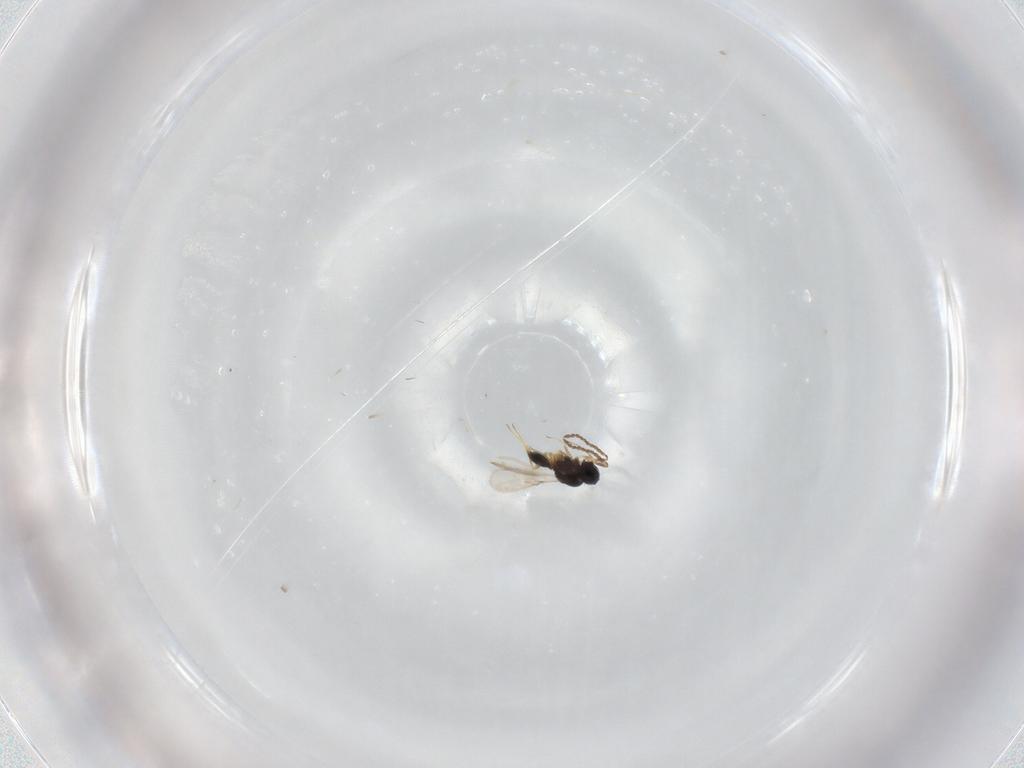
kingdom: Animalia
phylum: Arthropoda
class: Insecta
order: Hymenoptera
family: Scelionidae
